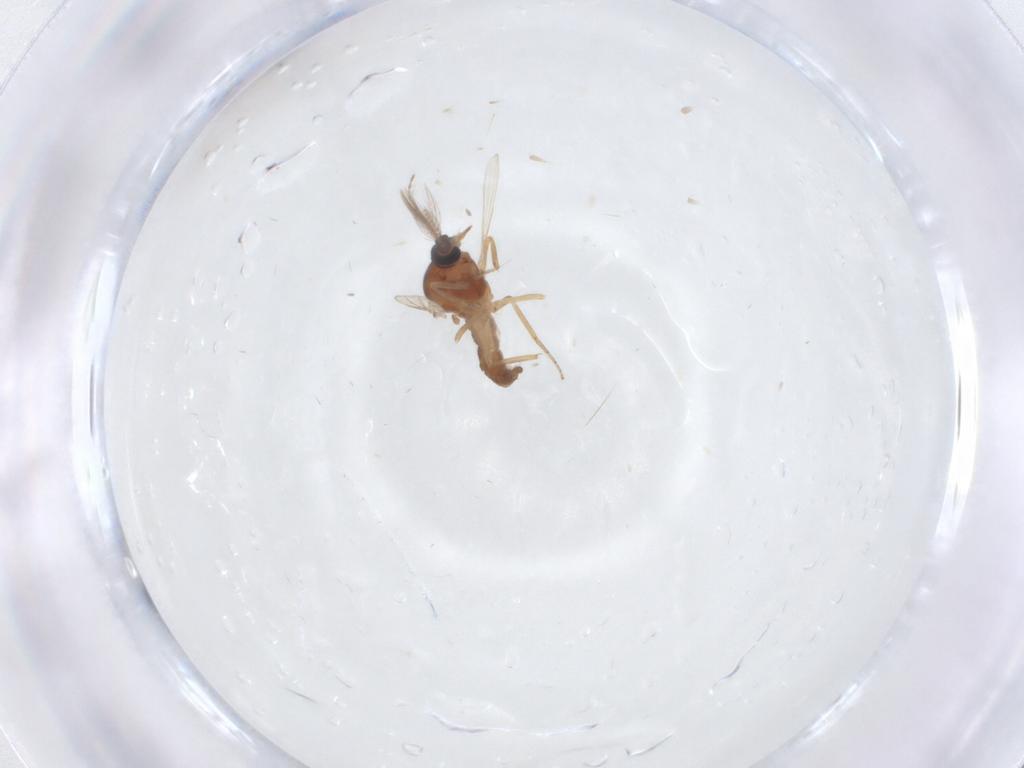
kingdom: Animalia
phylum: Arthropoda
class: Insecta
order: Diptera
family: Ceratopogonidae
